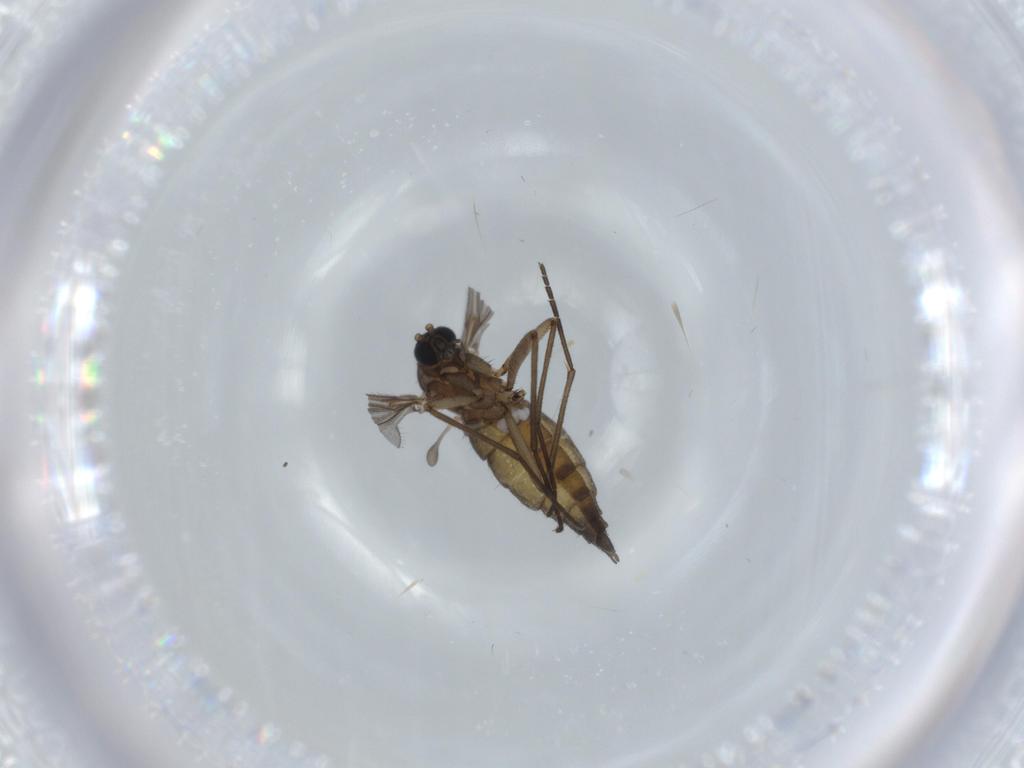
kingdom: Animalia
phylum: Arthropoda
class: Insecta
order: Diptera
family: Sciaridae
